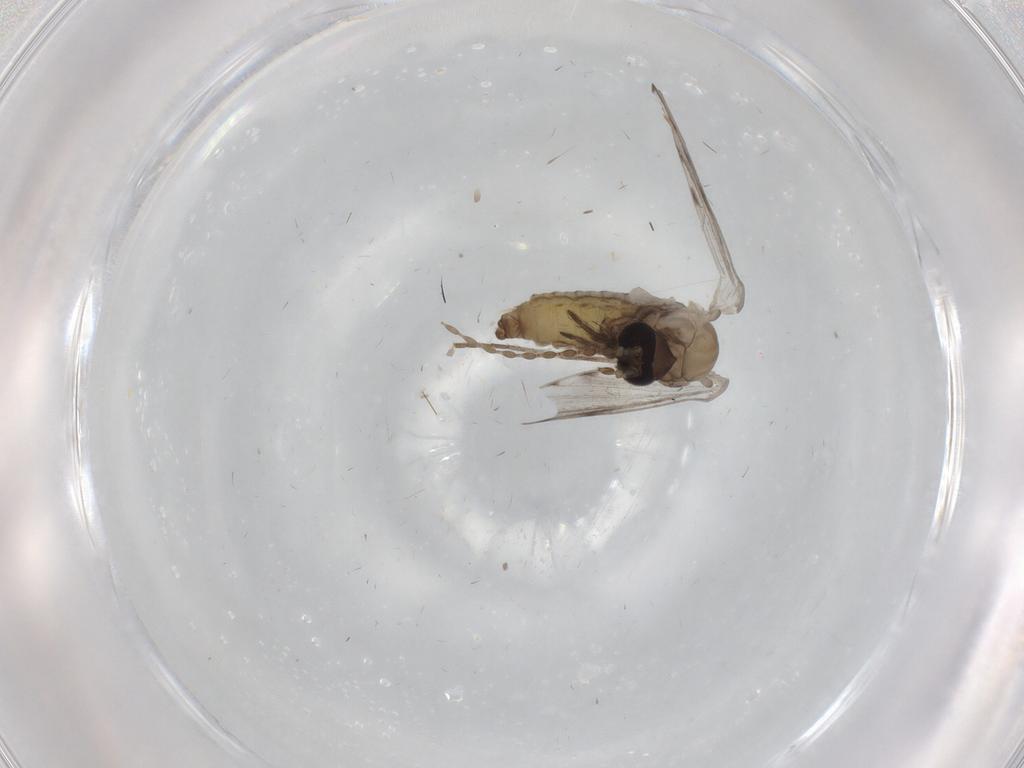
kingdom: Animalia
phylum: Arthropoda
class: Insecta
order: Diptera
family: Psychodidae
